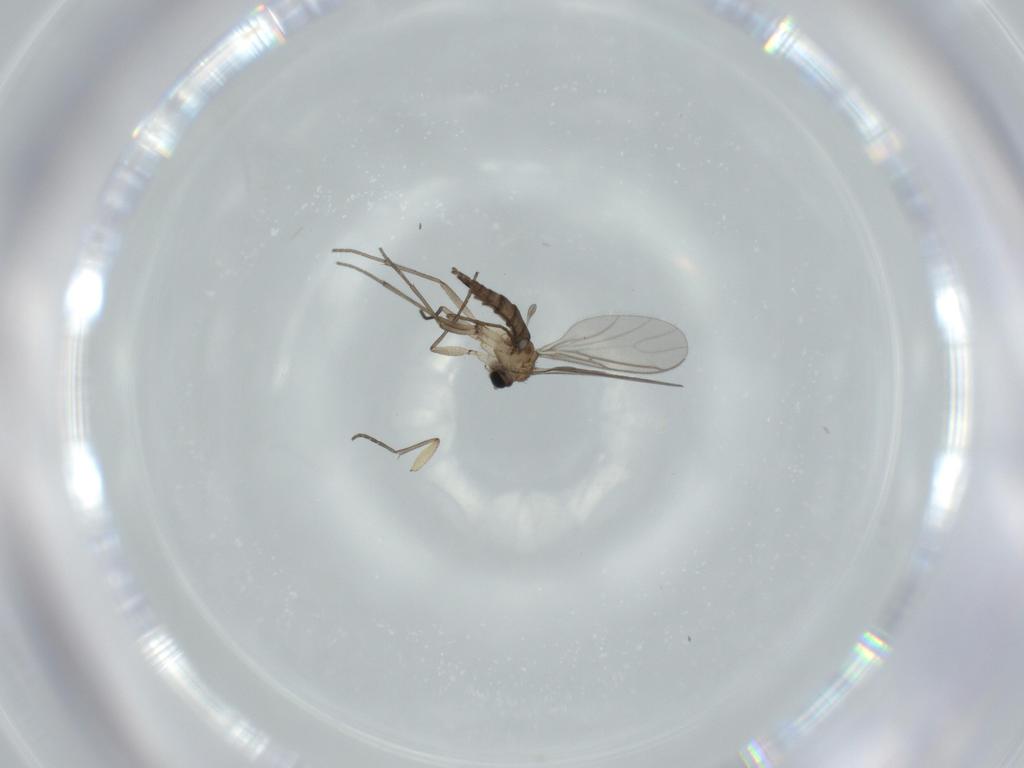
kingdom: Animalia
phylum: Arthropoda
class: Insecta
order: Diptera
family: Sciaridae
